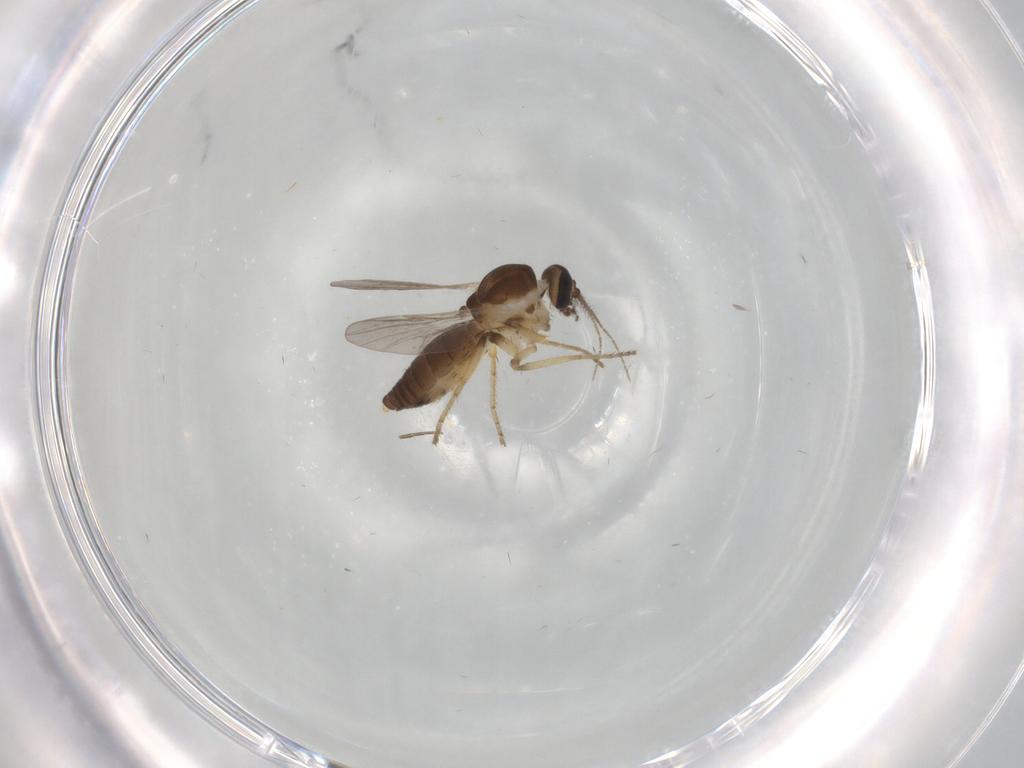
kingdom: Animalia
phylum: Arthropoda
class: Insecta
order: Diptera
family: Ceratopogonidae
